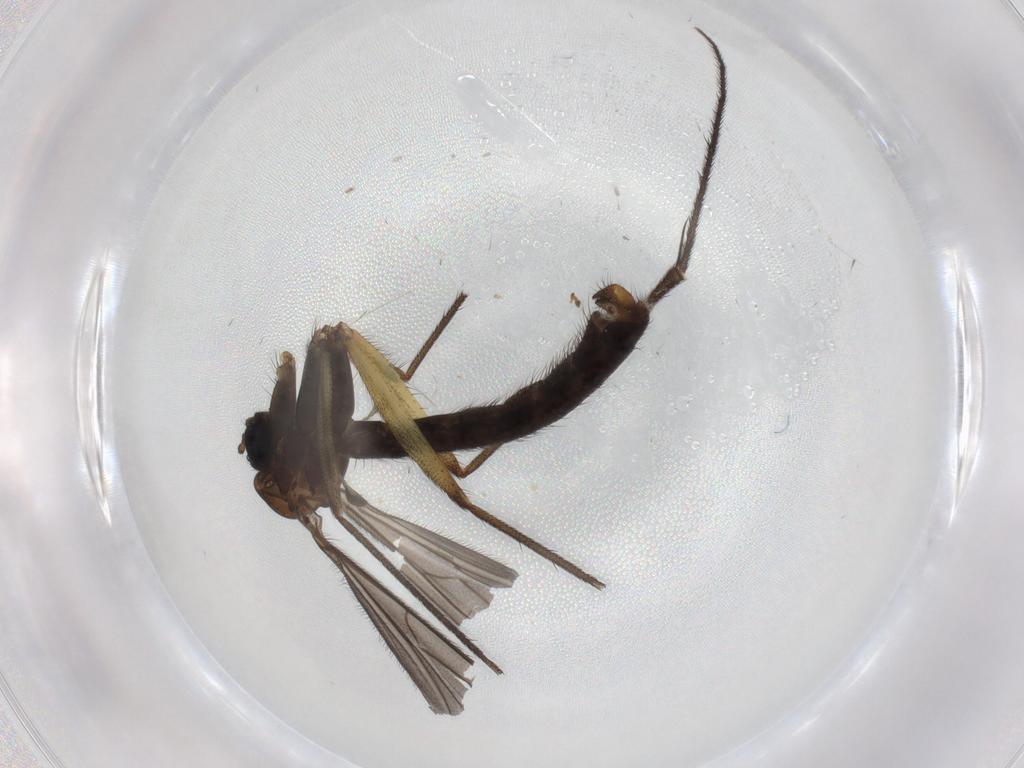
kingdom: Animalia
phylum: Arthropoda
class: Insecta
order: Diptera
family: Ditomyiidae
